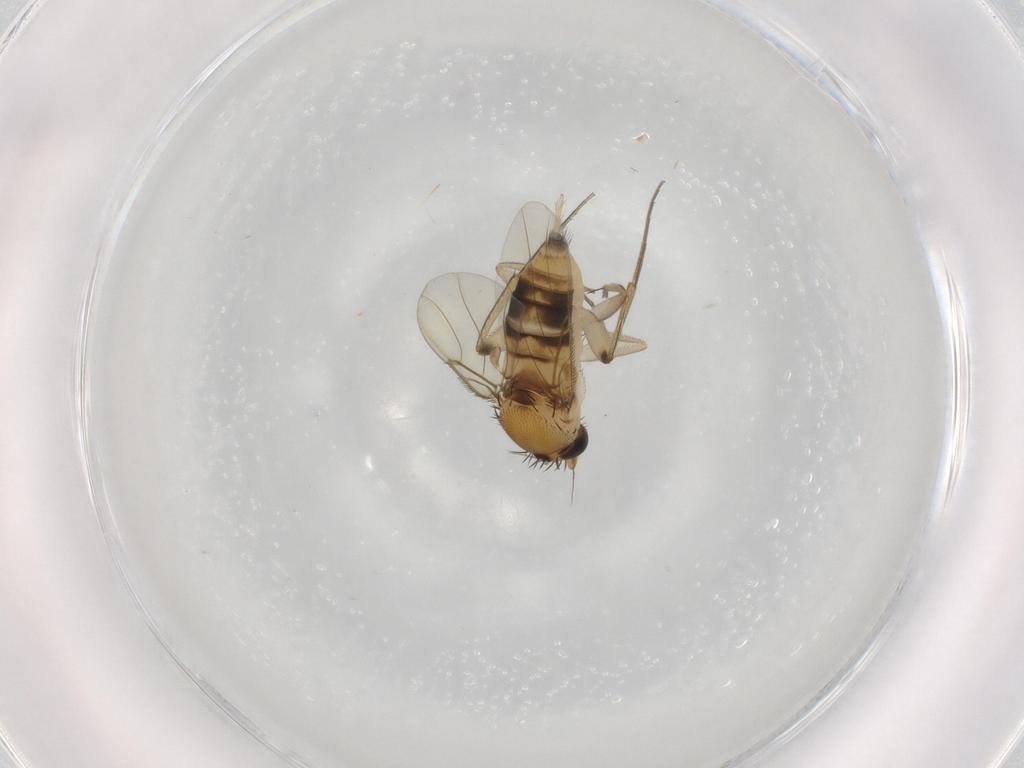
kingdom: Animalia
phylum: Arthropoda
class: Insecta
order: Diptera
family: Phoridae
